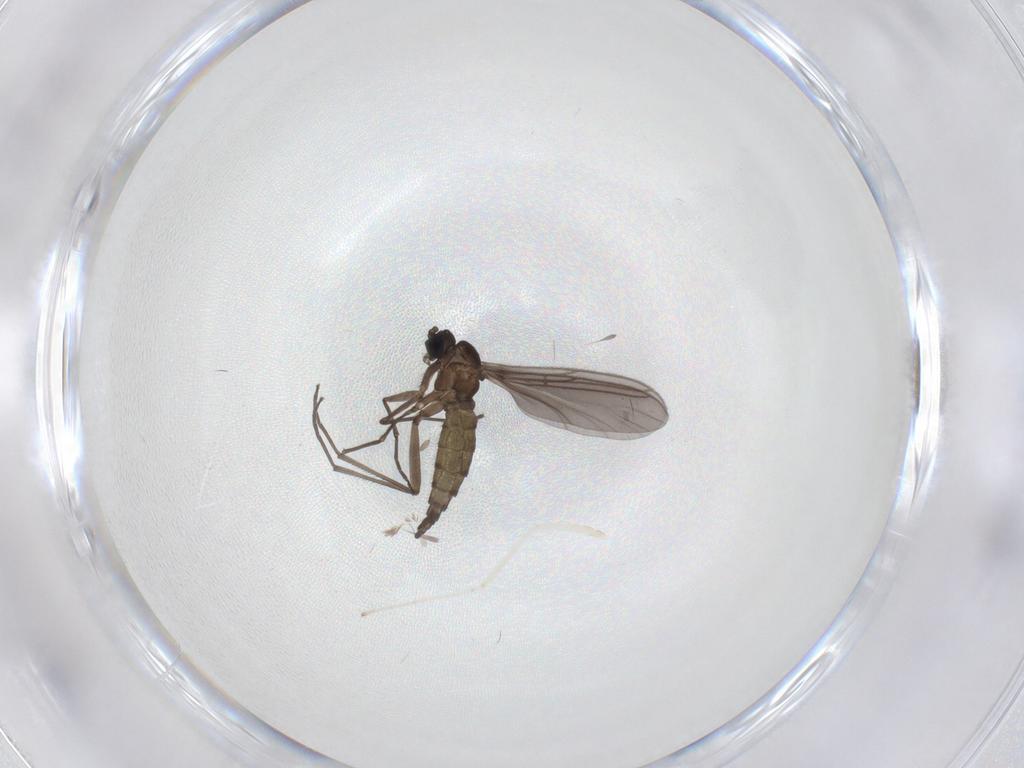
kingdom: Animalia
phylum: Arthropoda
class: Insecta
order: Diptera
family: Sciaridae
